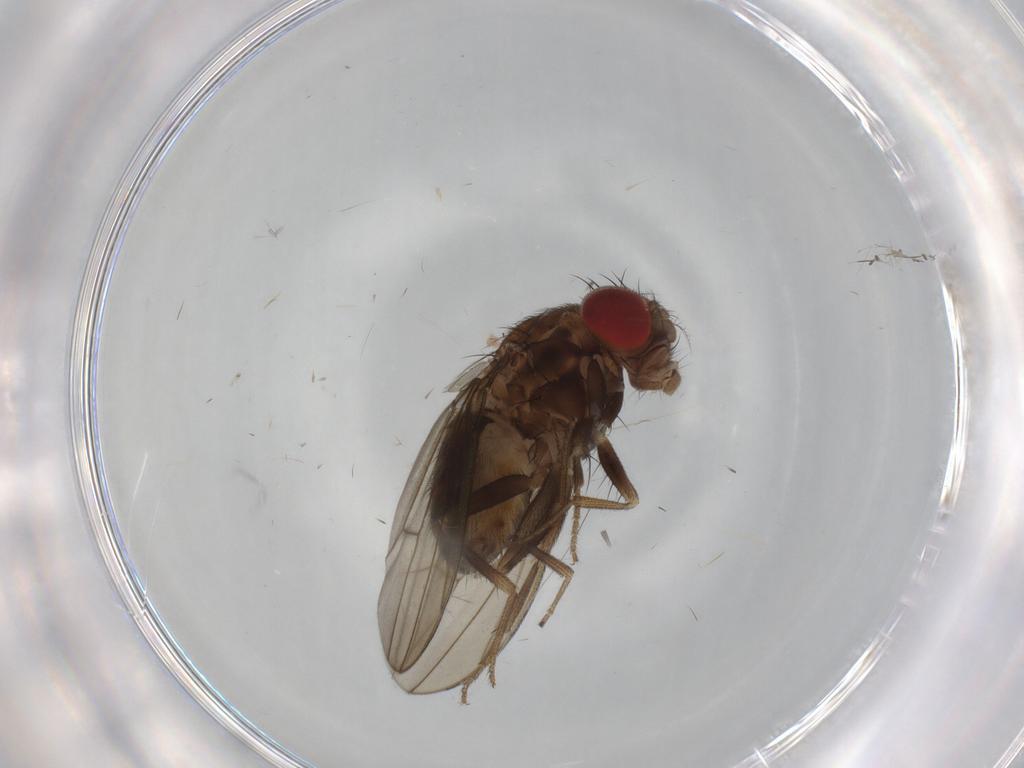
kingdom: Animalia
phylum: Arthropoda
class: Insecta
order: Diptera
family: Drosophilidae
